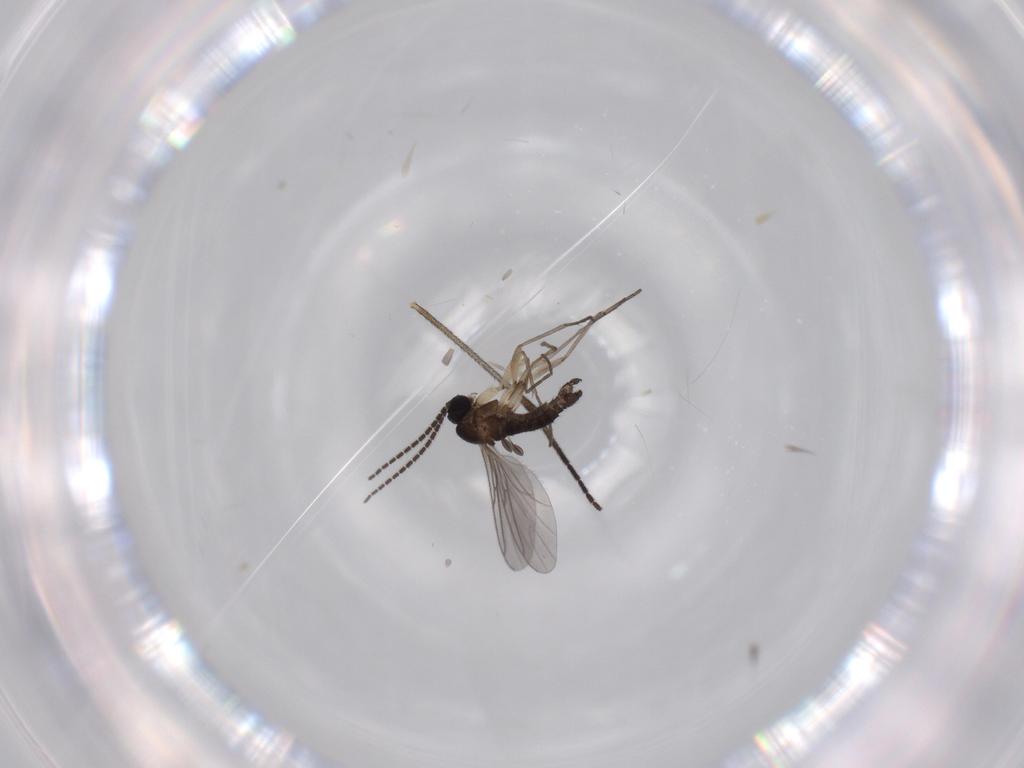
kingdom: Animalia
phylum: Arthropoda
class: Insecta
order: Diptera
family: Sciaridae
